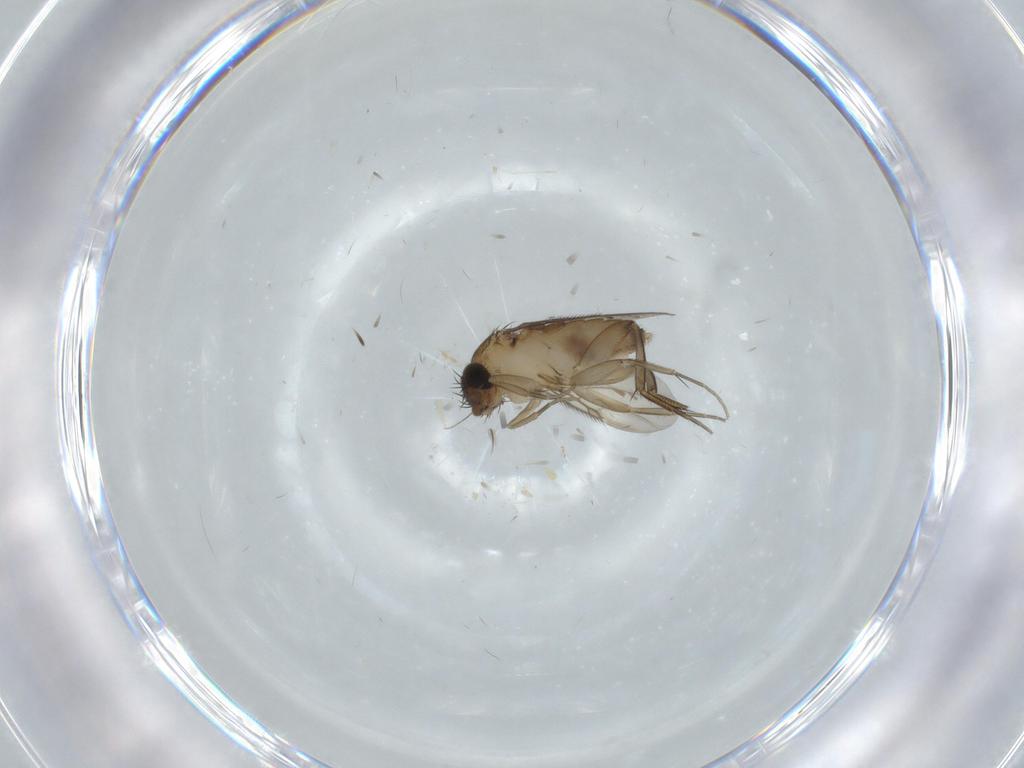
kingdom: Animalia
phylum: Arthropoda
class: Insecta
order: Diptera
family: Phoridae
